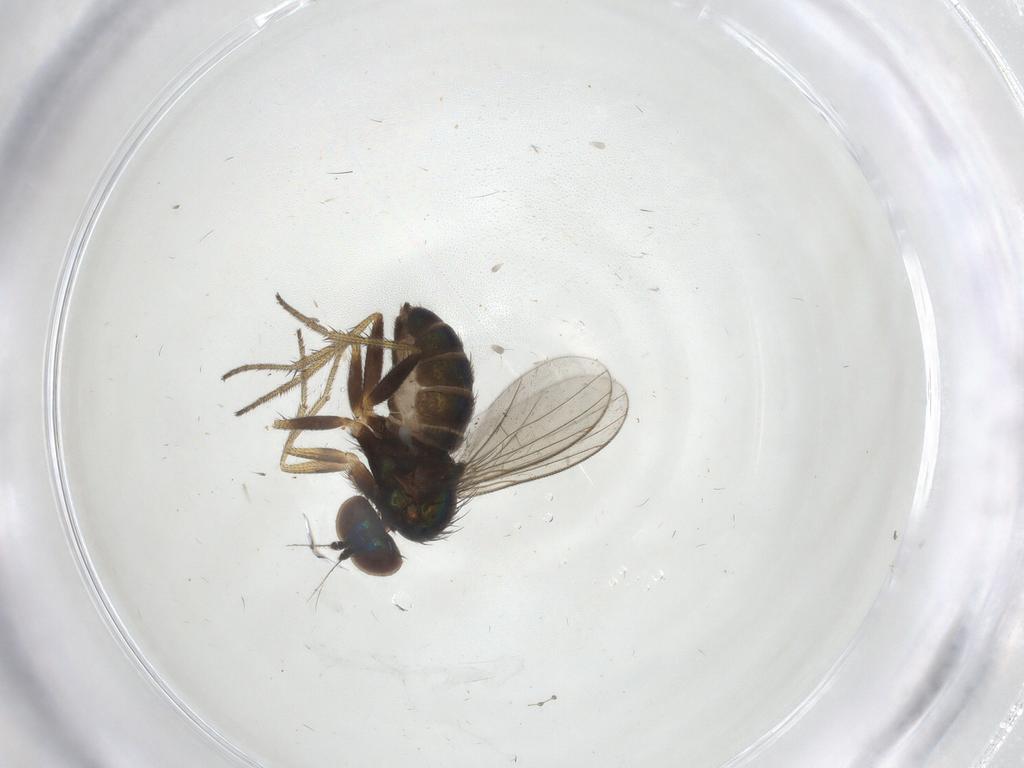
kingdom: Animalia
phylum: Arthropoda
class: Insecta
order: Diptera
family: Dolichopodidae
